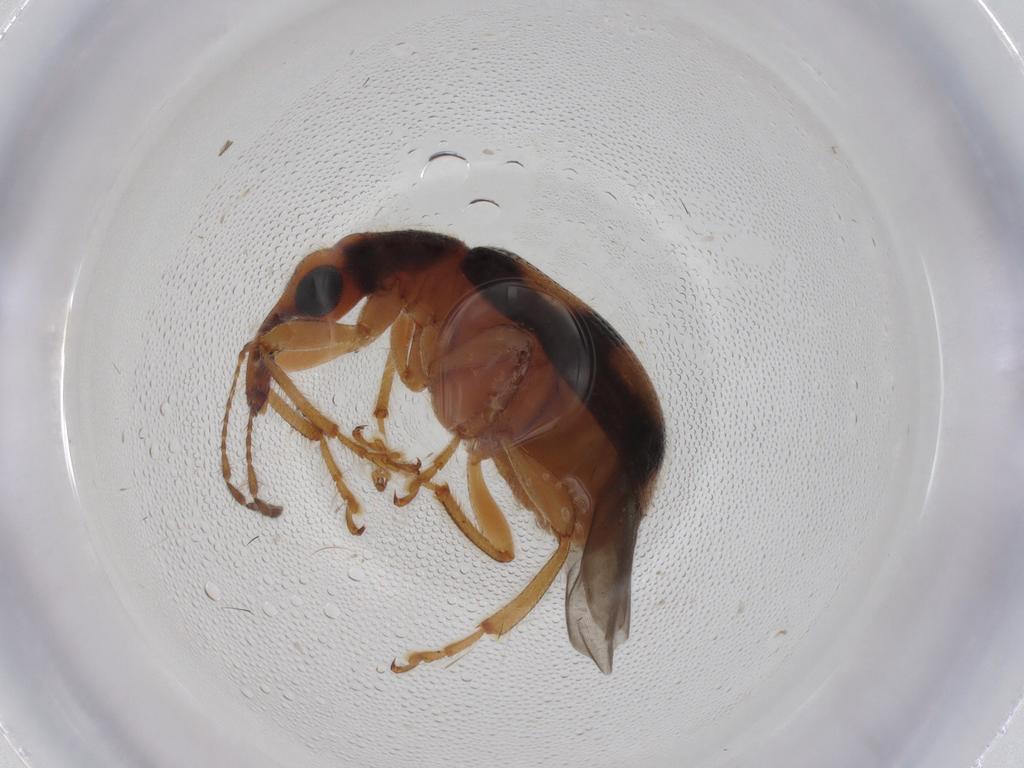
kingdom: Animalia
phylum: Arthropoda
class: Insecta
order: Coleoptera
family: Attelabidae
